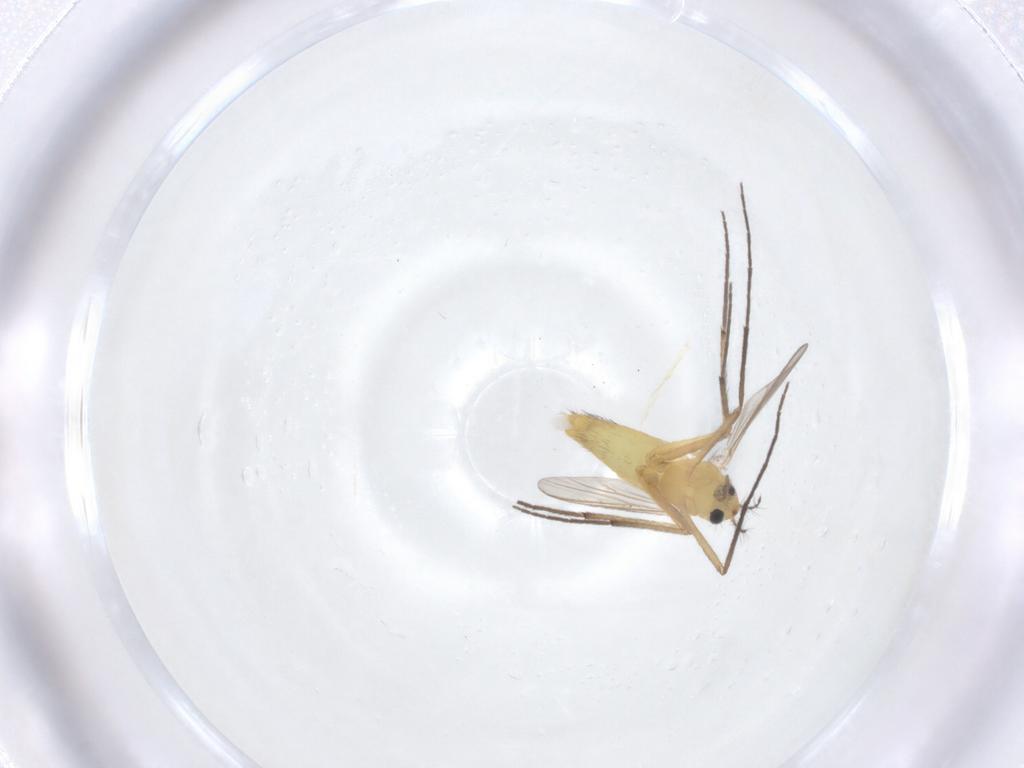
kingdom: Animalia
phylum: Arthropoda
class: Insecta
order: Diptera
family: Chironomidae
